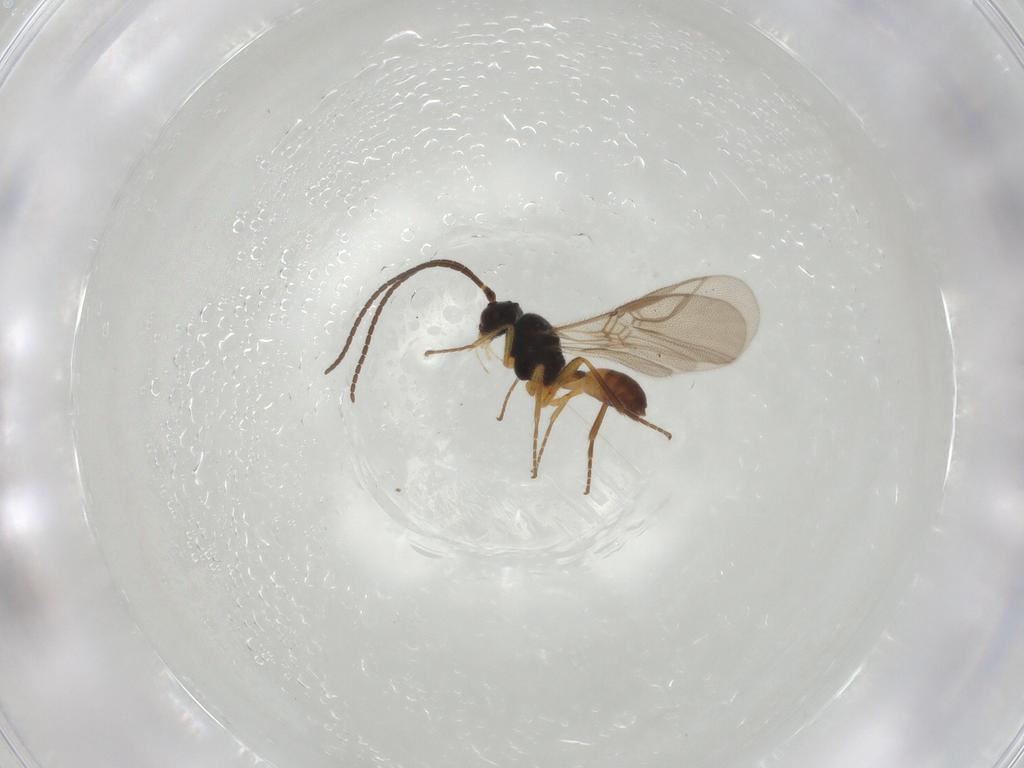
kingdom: Animalia
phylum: Arthropoda
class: Insecta
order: Hymenoptera
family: Braconidae
